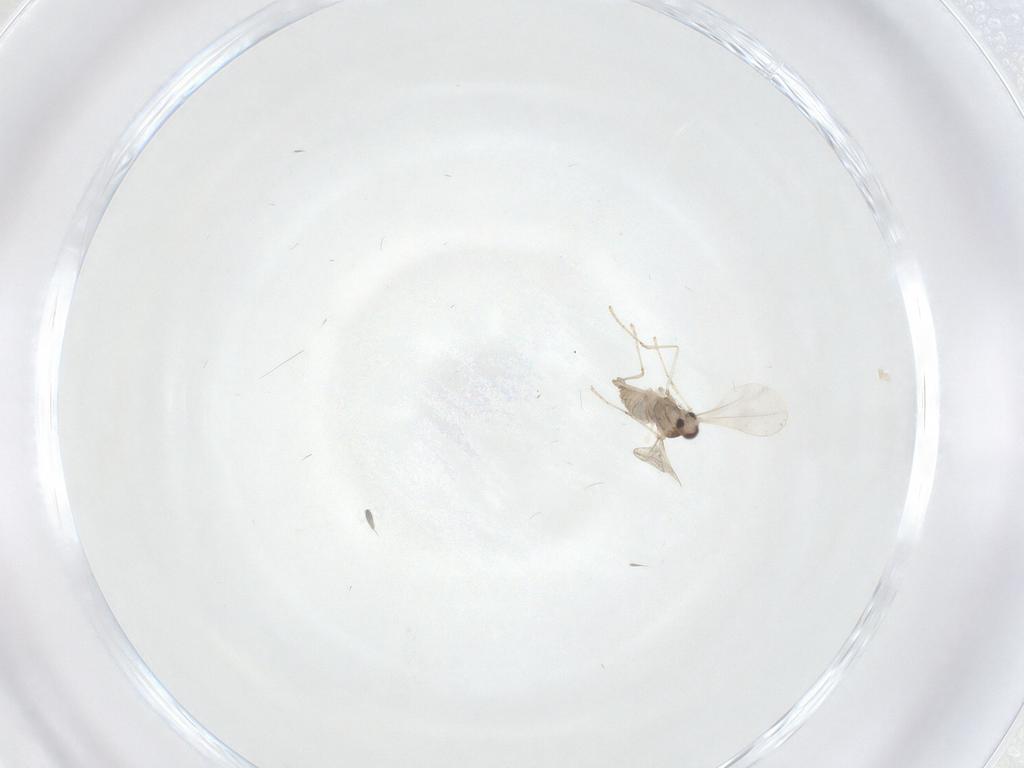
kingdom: Animalia
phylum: Arthropoda
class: Insecta
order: Diptera
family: Cecidomyiidae
